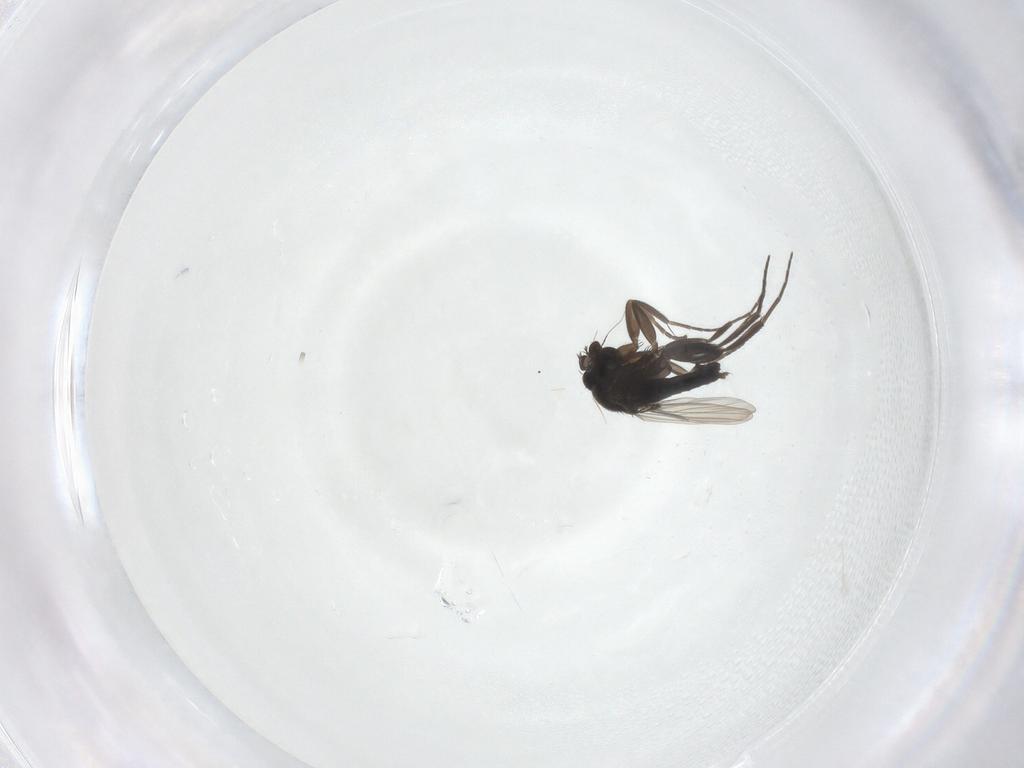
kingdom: Animalia
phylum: Arthropoda
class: Insecta
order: Diptera
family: Phoridae
